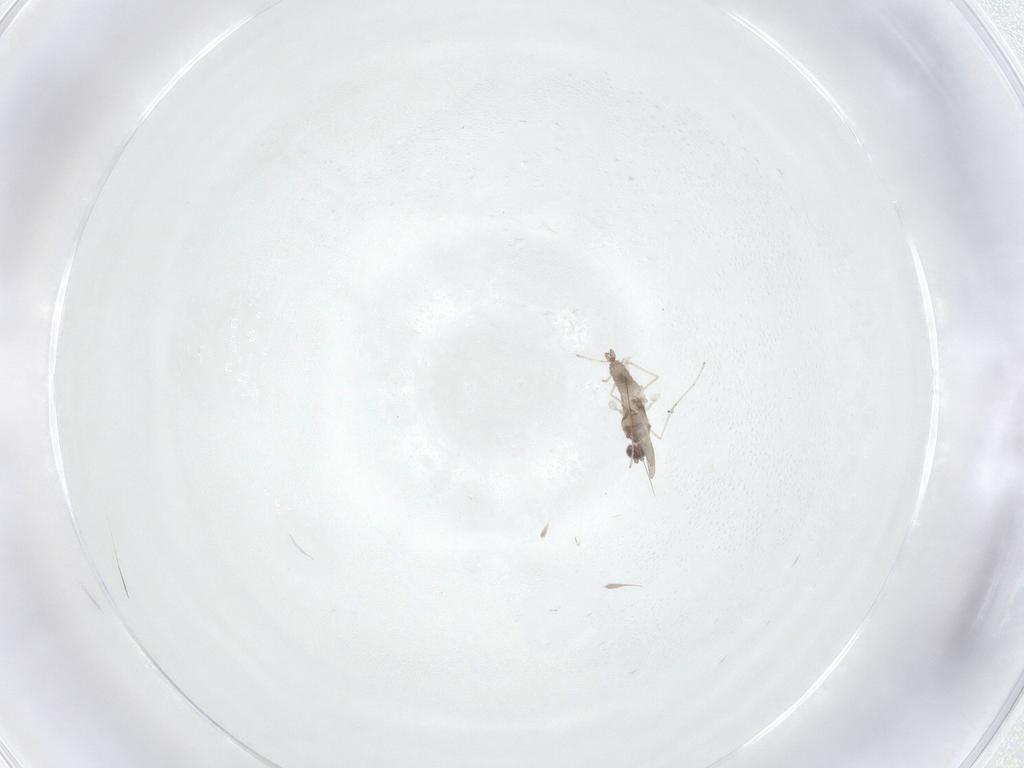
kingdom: Animalia
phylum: Arthropoda
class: Insecta
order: Diptera
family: Cecidomyiidae
